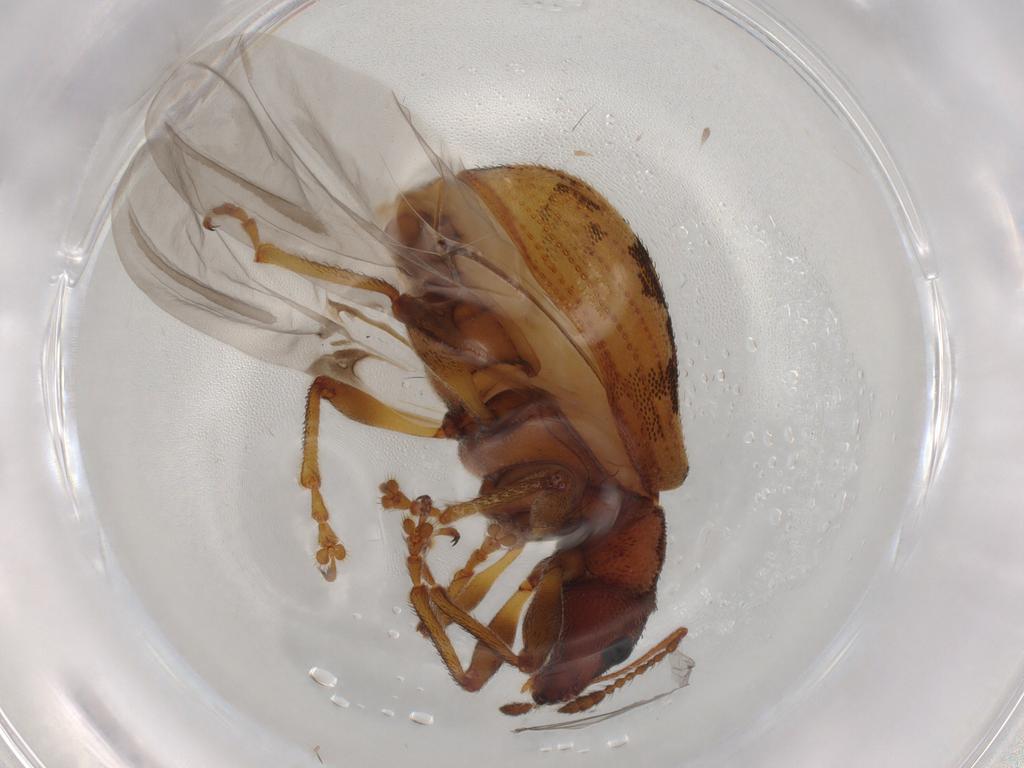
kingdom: Animalia
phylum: Arthropoda
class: Insecta
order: Coleoptera
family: Curculionidae
